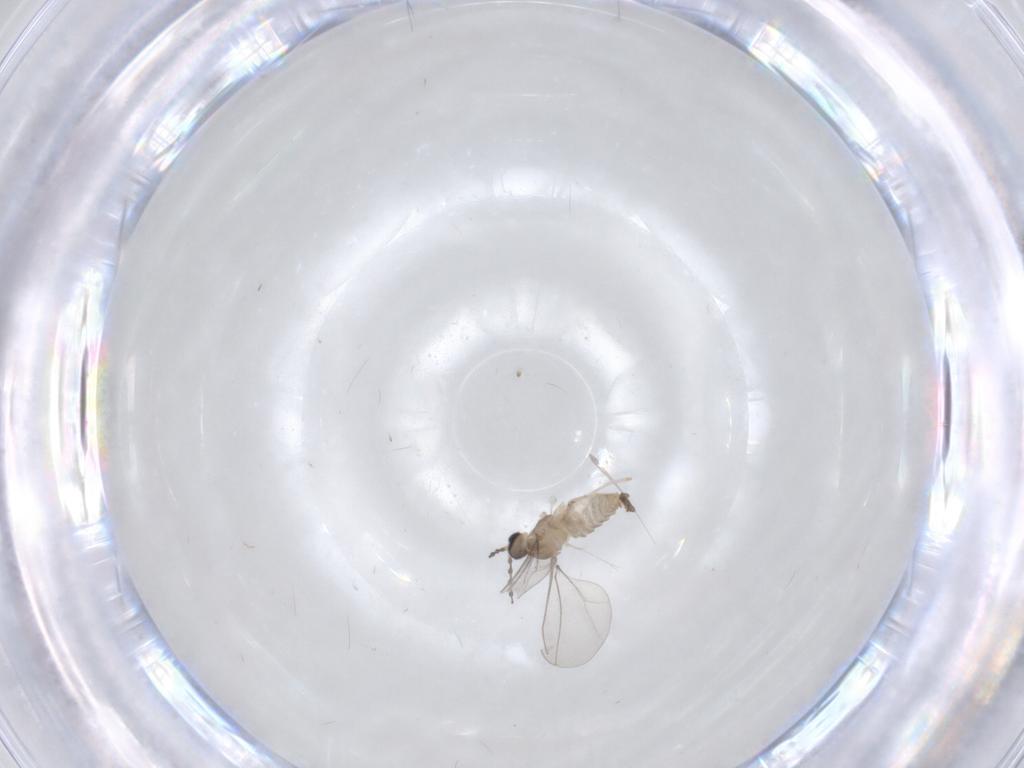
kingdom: Animalia
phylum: Arthropoda
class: Insecta
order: Diptera
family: Cecidomyiidae
